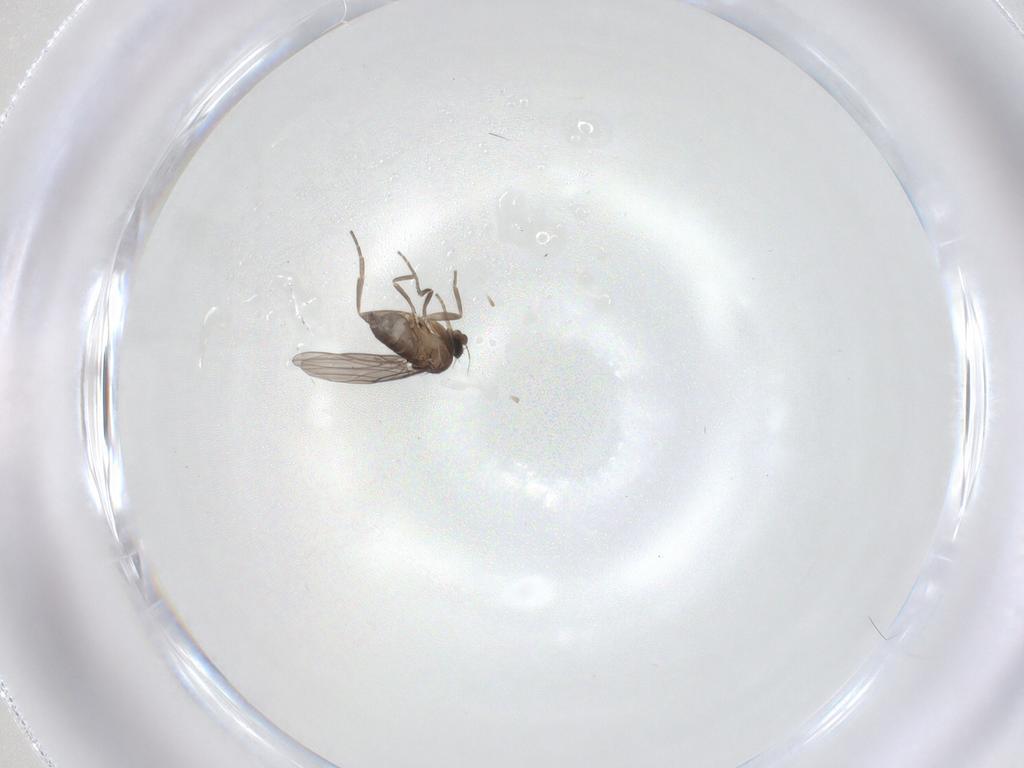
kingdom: Animalia
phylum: Arthropoda
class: Insecta
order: Diptera
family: Phoridae
